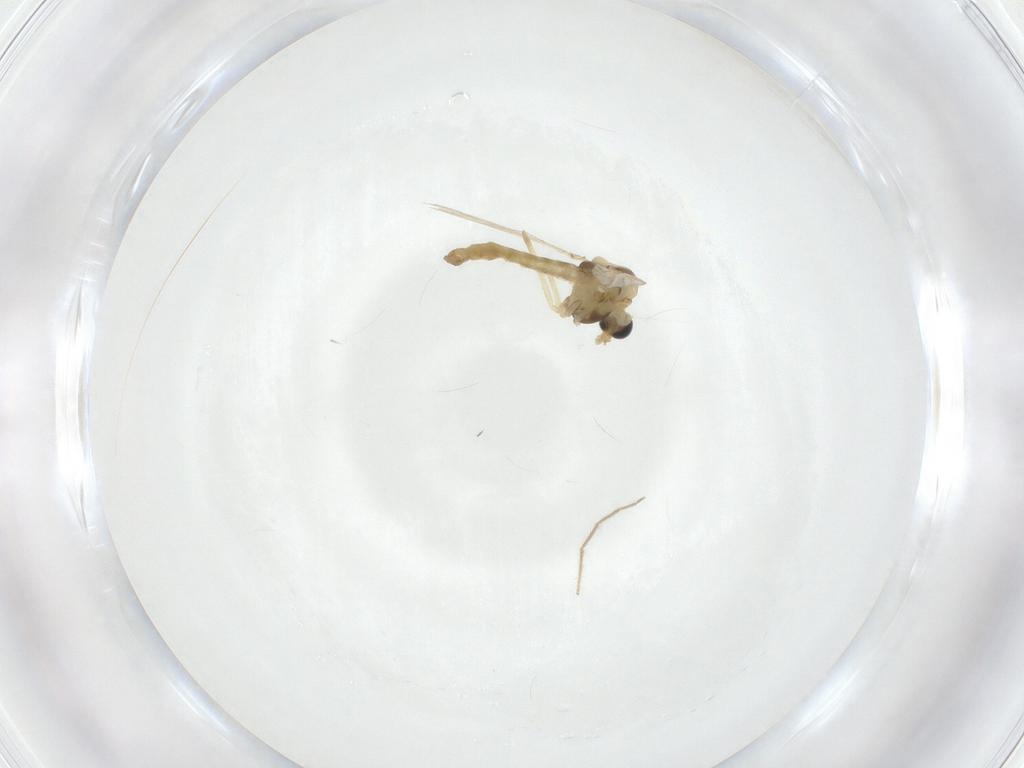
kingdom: Animalia
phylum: Arthropoda
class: Insecta
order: Diptera
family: Chironomidae
